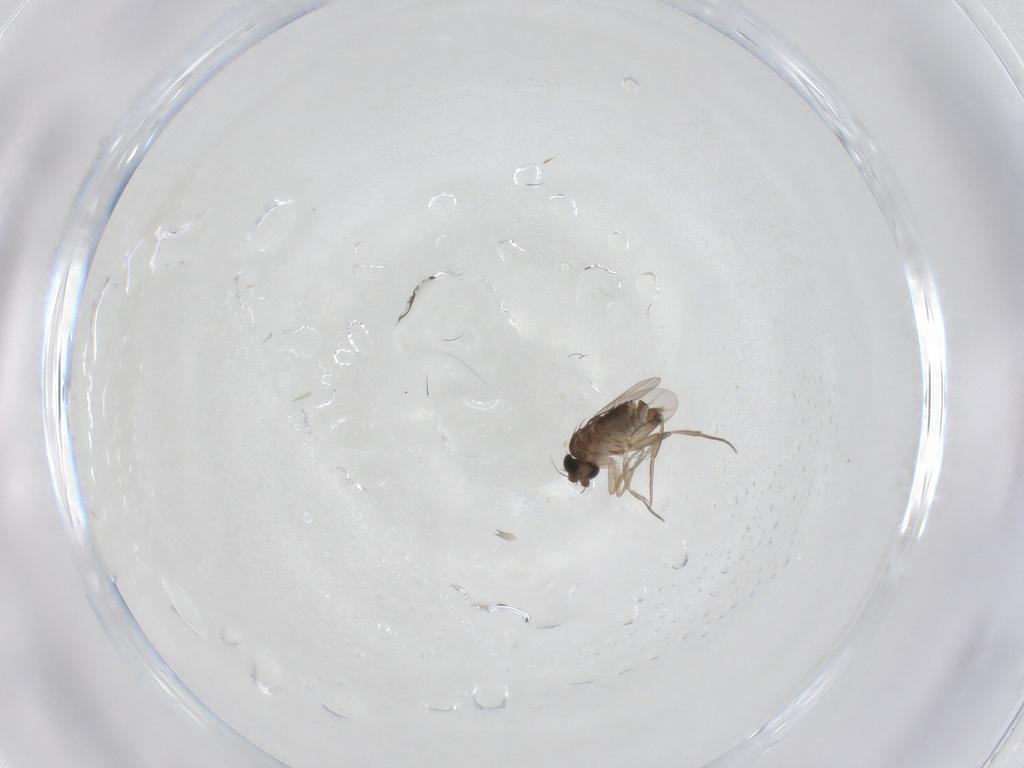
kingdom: Animalia
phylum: Arthropoda
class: Insecta
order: Diptera
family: Phoridae
